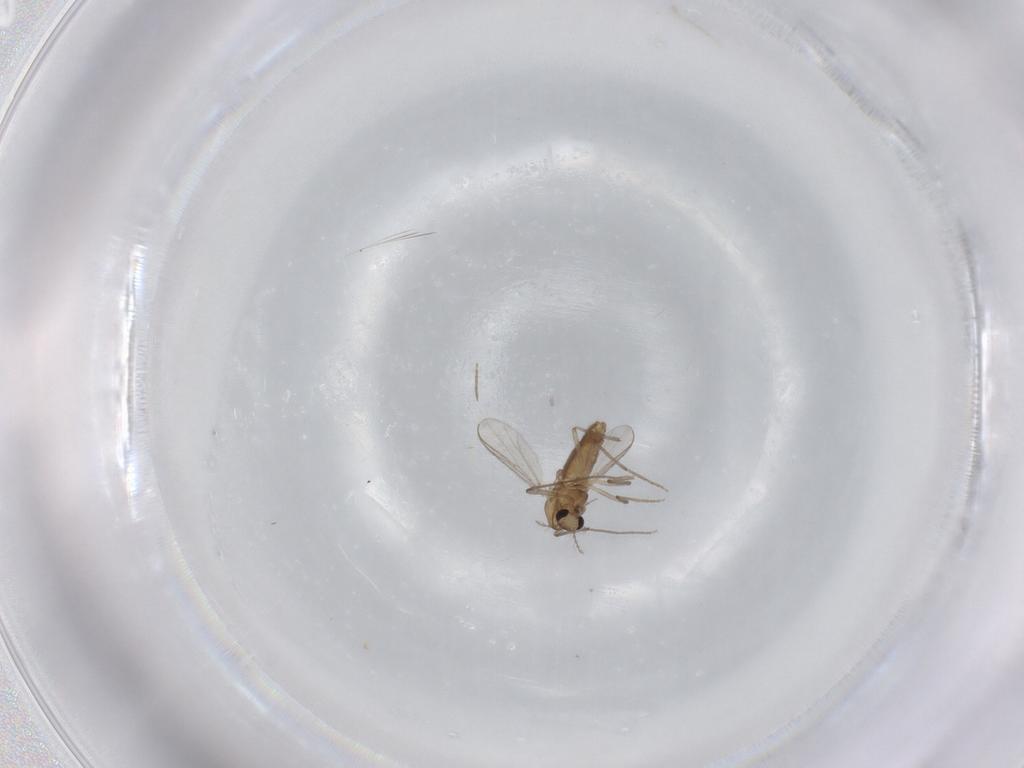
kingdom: Animalia
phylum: Arthropoda
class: Insecta
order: Diptera
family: Chironomidae
